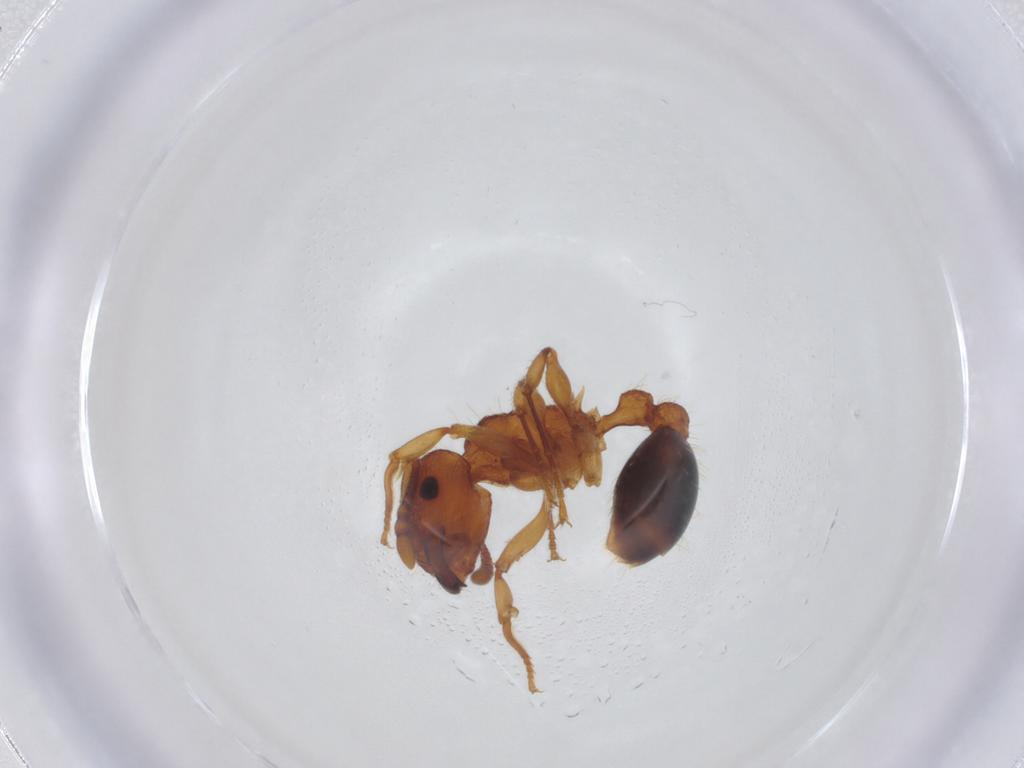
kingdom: Animalia
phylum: Arthropoda
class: Insecta
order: Hymenoptera
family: Formicidae
